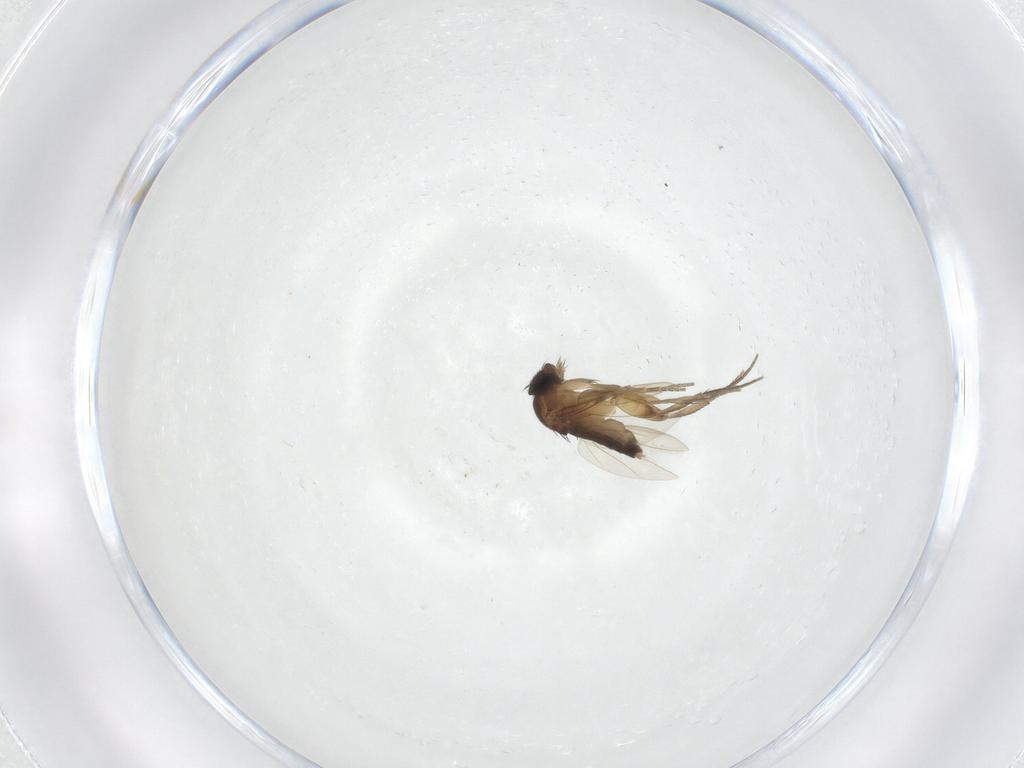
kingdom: Animalia
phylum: Arthropoda
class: Insecta
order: Diptera
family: Phoridae
